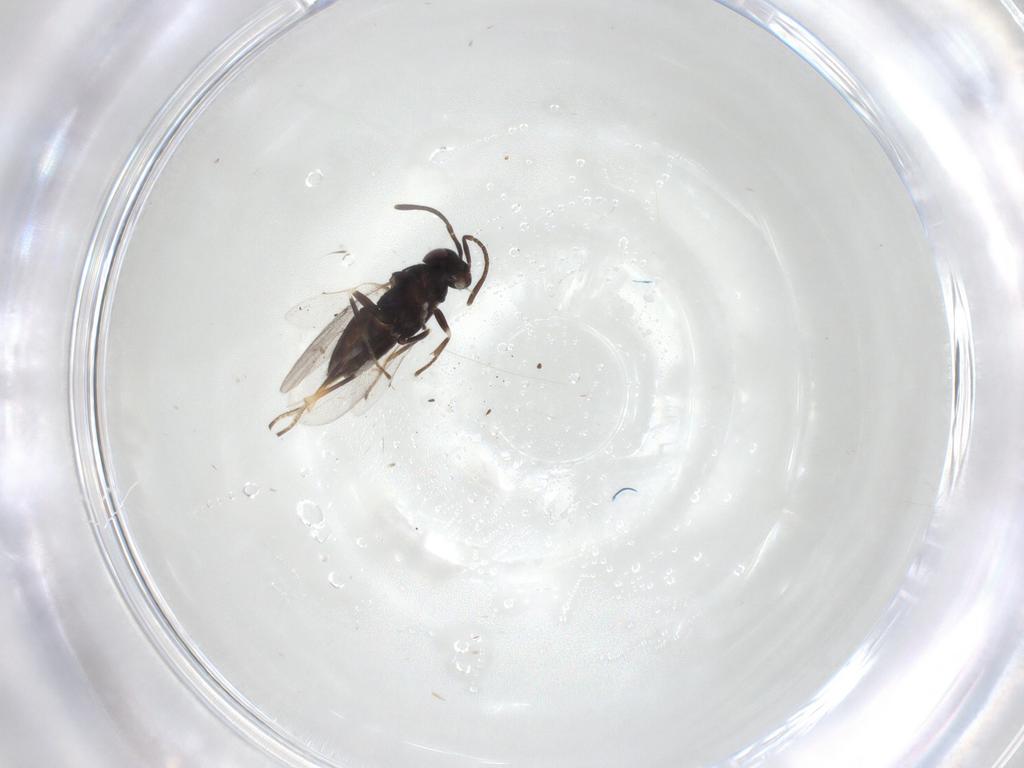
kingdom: Animalia
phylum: Arthropoda
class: Insecta
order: Hymenoptera
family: Encyrtidae
